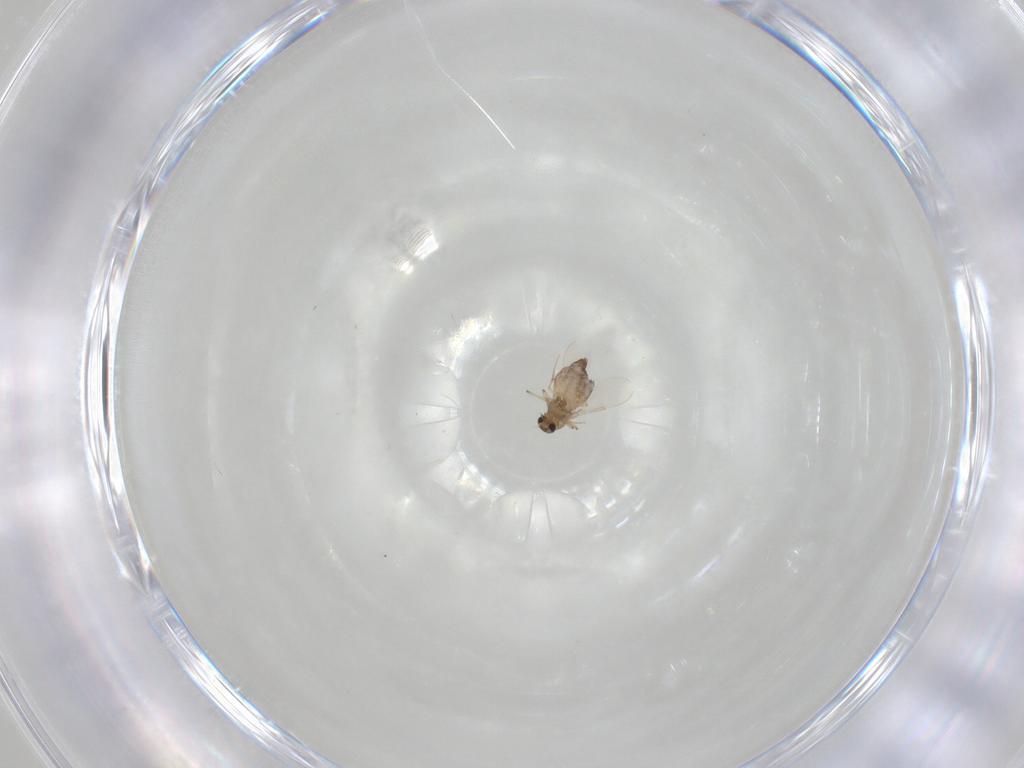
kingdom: Animalia
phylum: Arthropoda
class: Insecta
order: Diptera
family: Chironomidae
